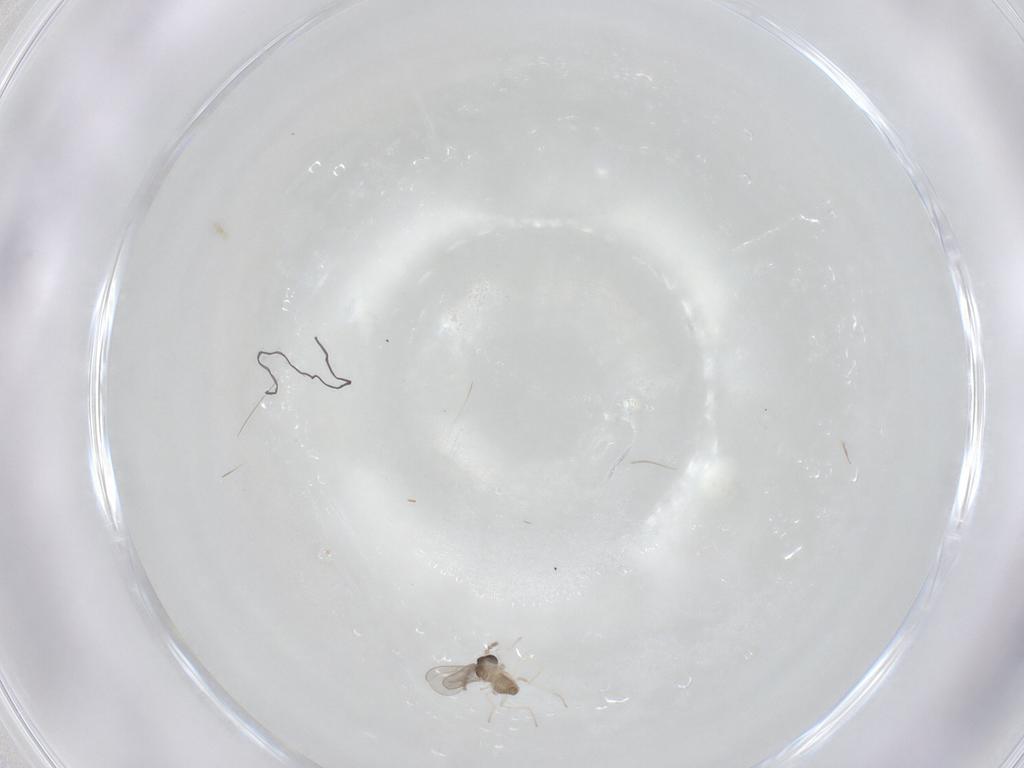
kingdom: Animalia
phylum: Arthropoda
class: Insecta
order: Diptera
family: Cecidomyiidae
